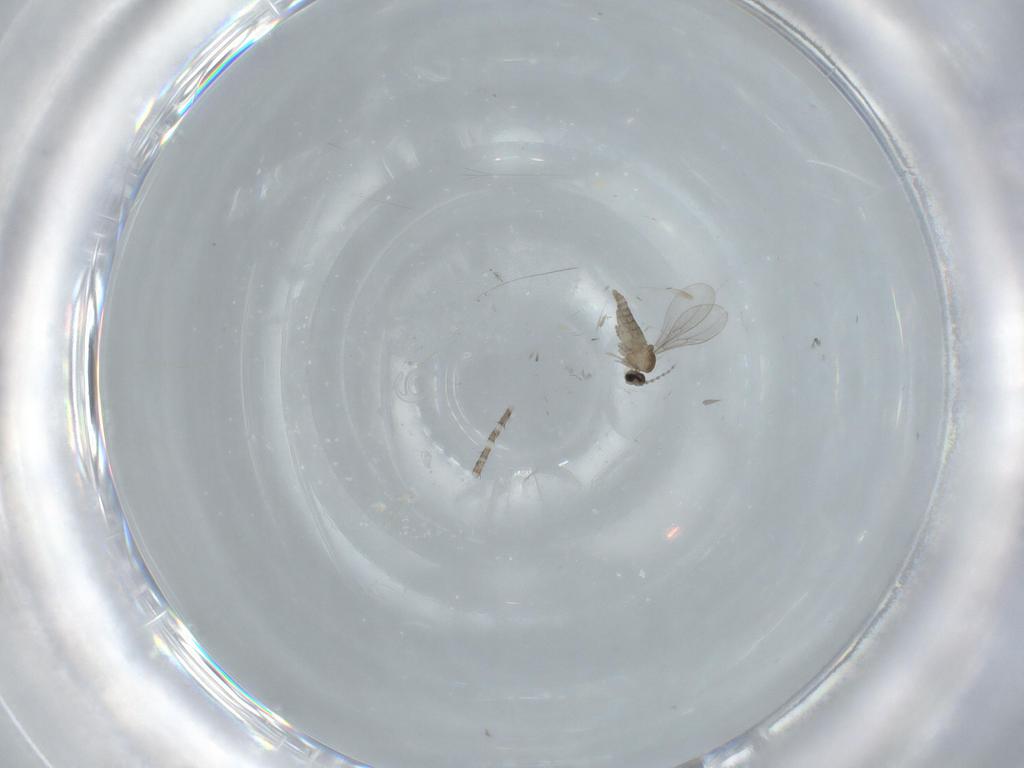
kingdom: Animalia
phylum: Arthropoda
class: Insecta
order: Diptera
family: Cecidomyiidae
